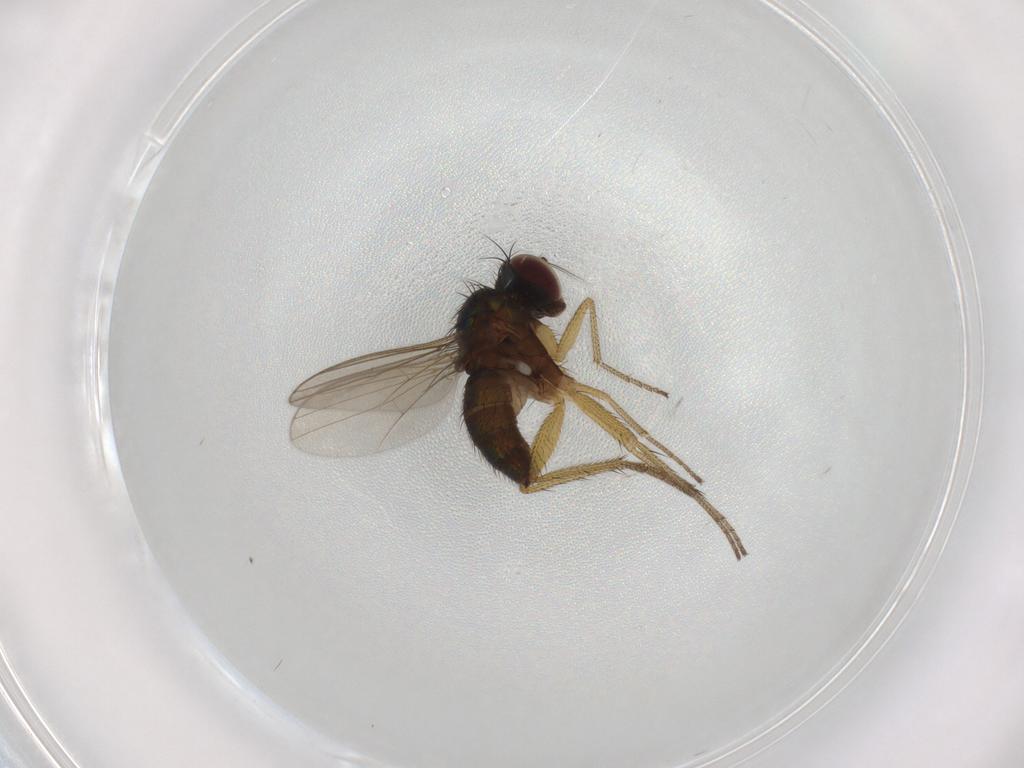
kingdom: Animalia
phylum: Arthropoda
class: Insecta
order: Diptera
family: Dolichopodidae
